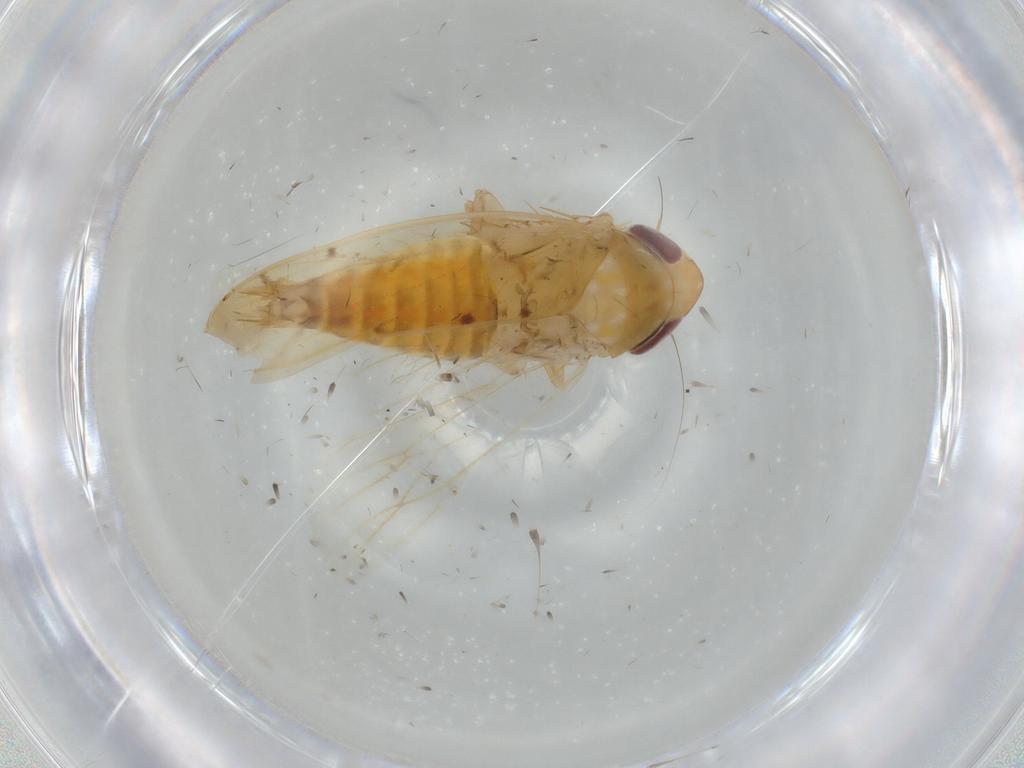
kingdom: Animalia
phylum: Arthropoda
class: Insecta
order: Hemiptera
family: Cicadellidae
